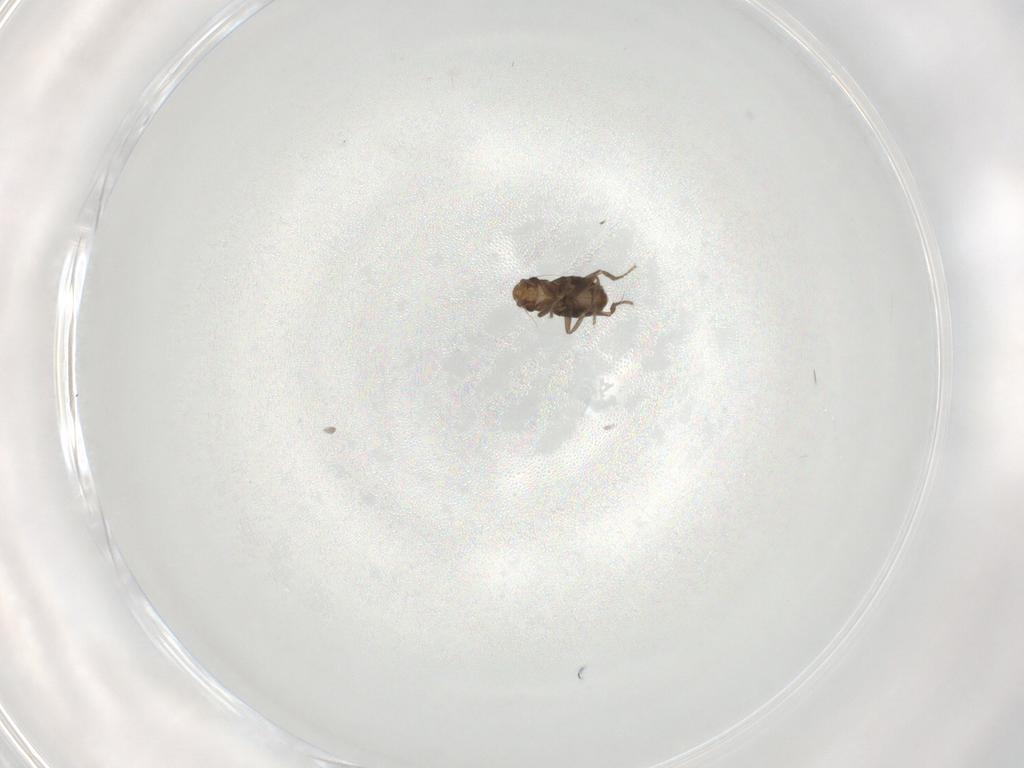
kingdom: Animalia
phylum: Arthropoda
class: Insecta
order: Diptera
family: Phoridae
